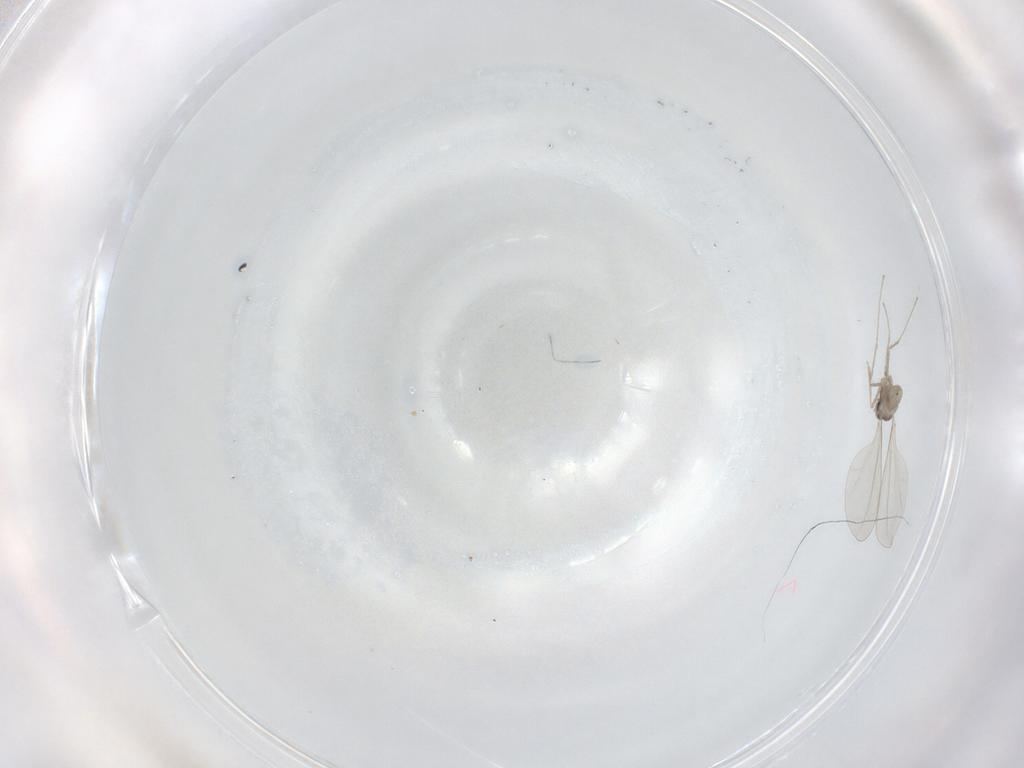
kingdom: Animalia
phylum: Arthropoda
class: Insecta
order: Diptera
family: Cecidomyiidae
